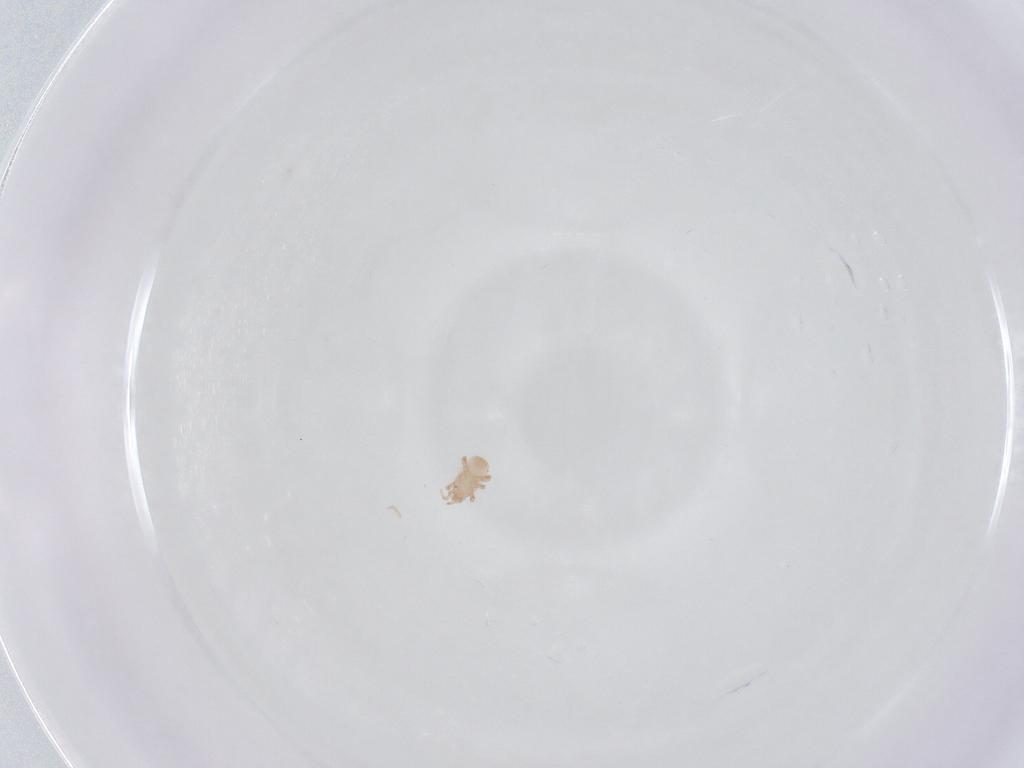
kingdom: Animalia
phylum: Arthropoda
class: Arachnida
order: Mesostigmata
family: Digamasellidae
